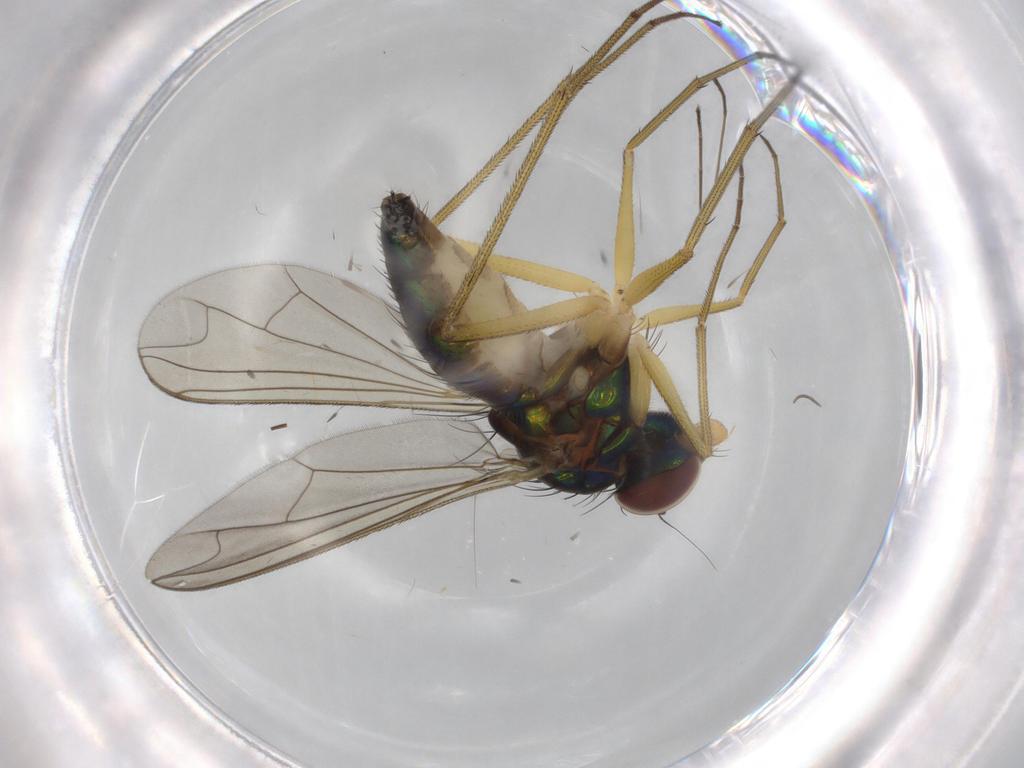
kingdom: Animalia
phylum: Arthropoda
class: Insecta
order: Diptera
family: Dolichopodidae
